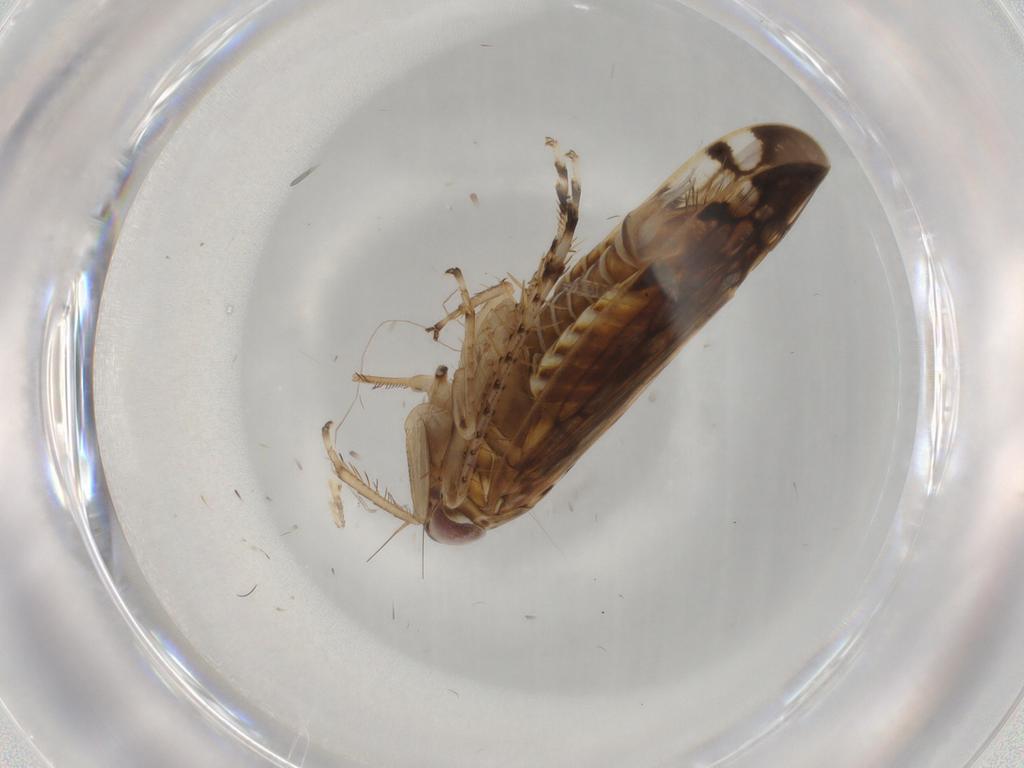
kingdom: Animalia
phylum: Arthropoda
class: Insecta
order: Hemiptera
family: Cicadellidae
